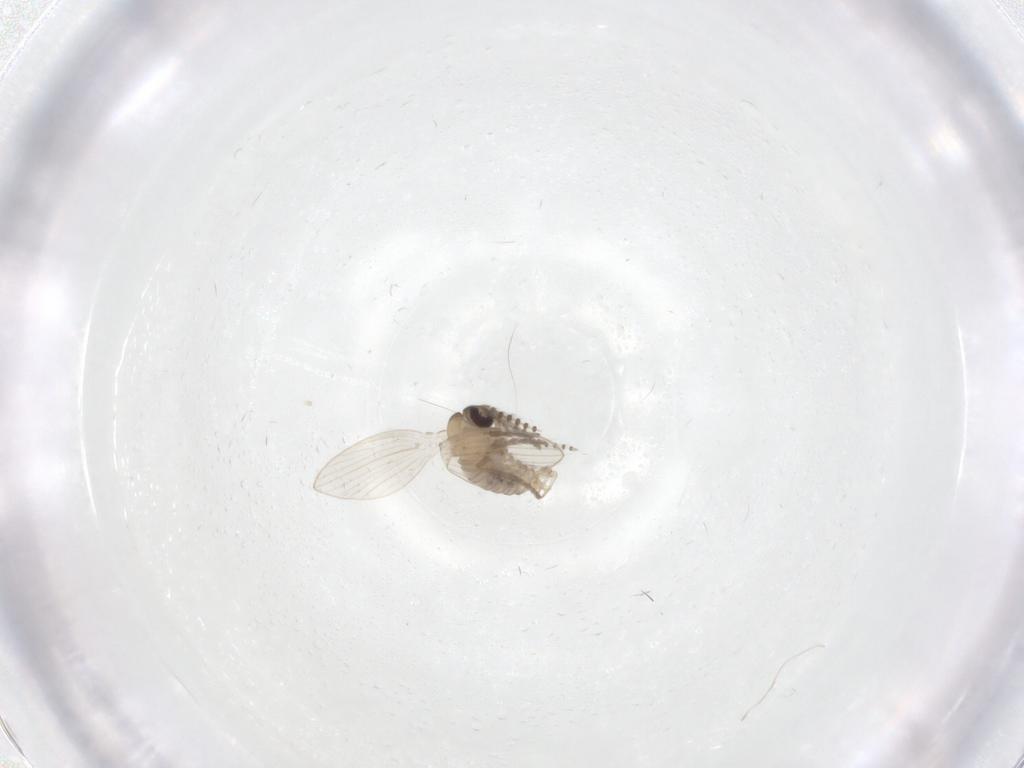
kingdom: Animalia
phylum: Arthropoda
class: Insecta
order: Diptera
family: Psychodidae
